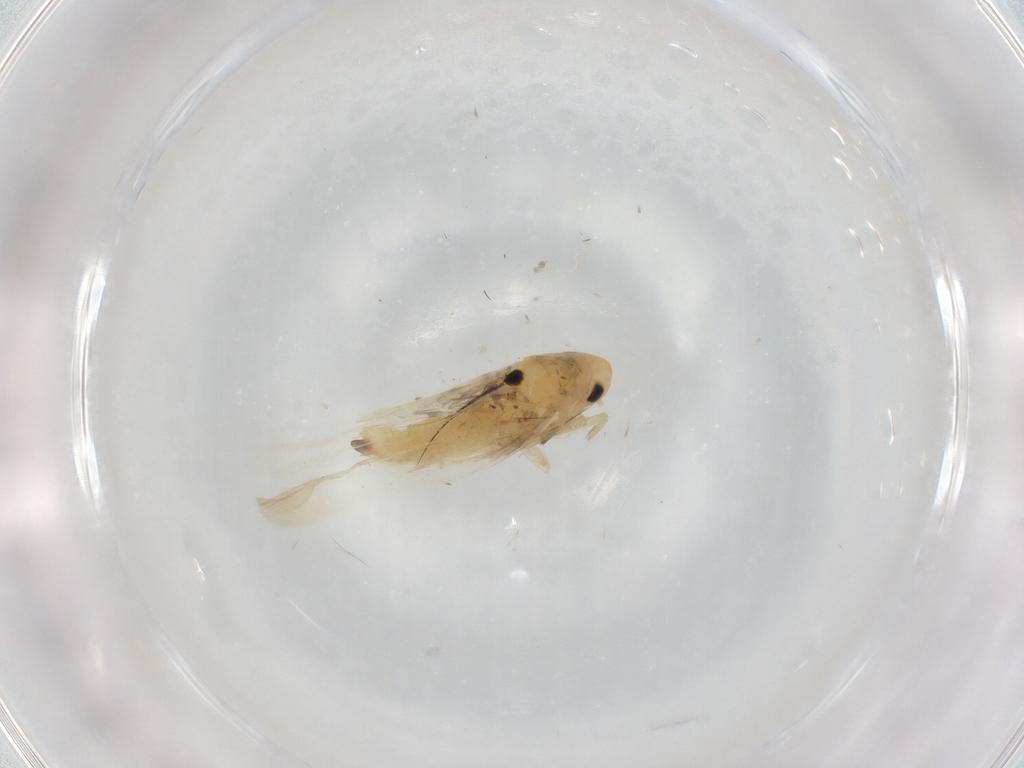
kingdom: Animalia
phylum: Arthropoda
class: Insecta
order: Hemiptera
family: Cicadellidae
